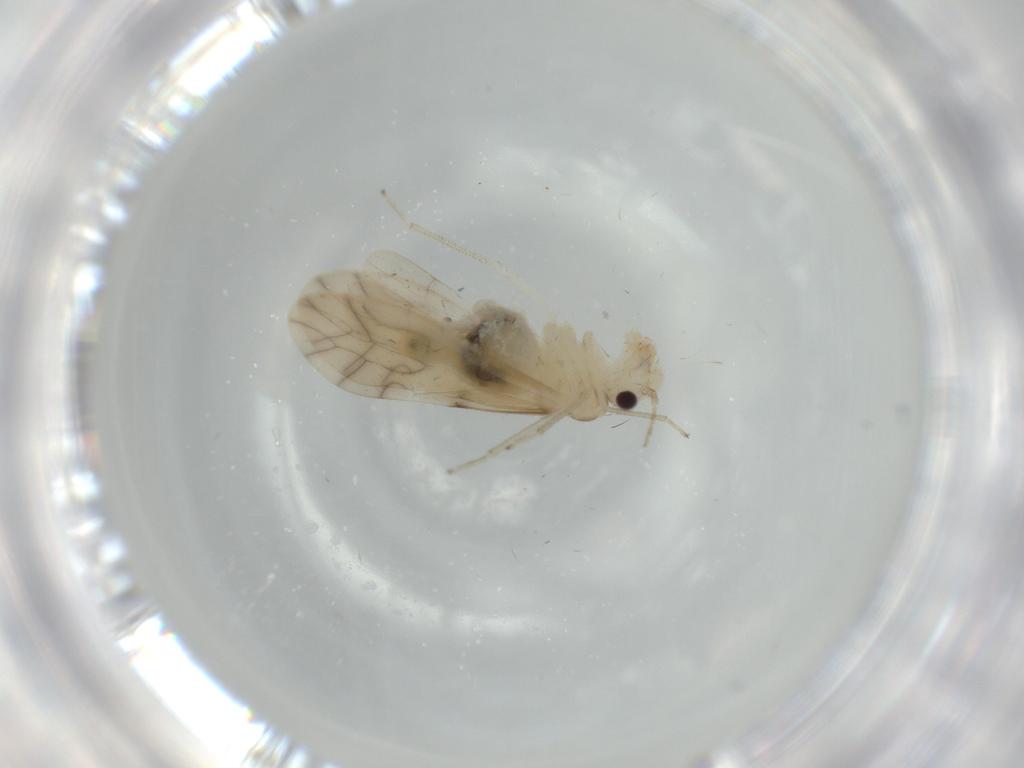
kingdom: Animalia
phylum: Arthropoda
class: Insecta
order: Psocodea
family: Caeciliusidae
